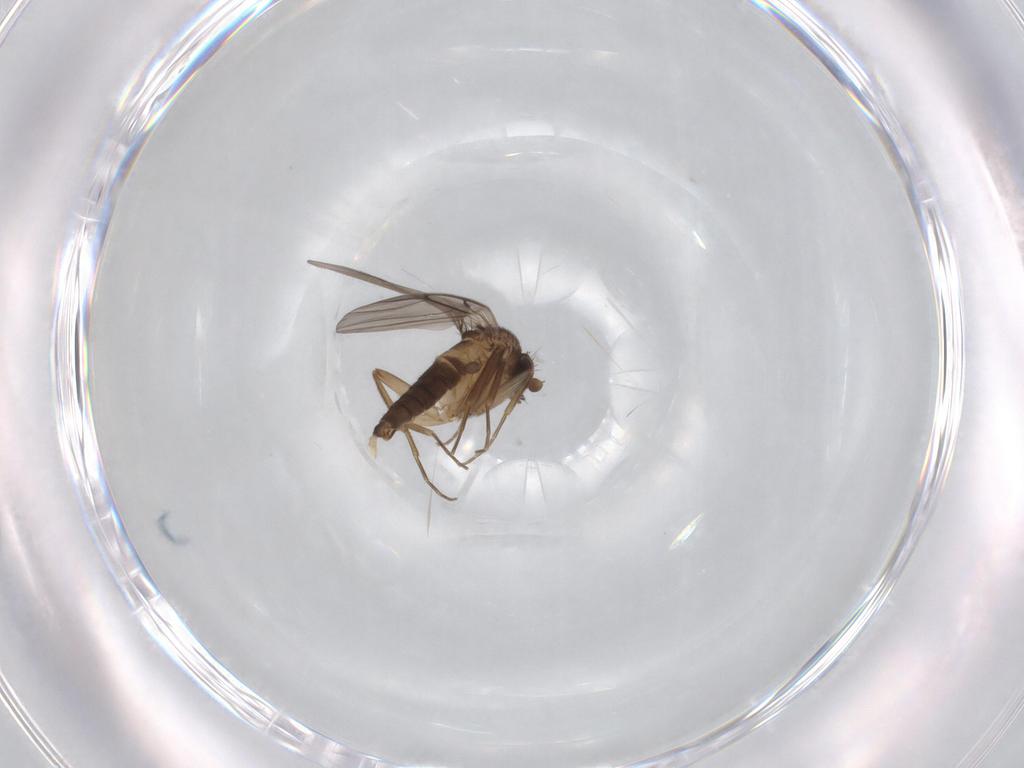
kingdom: Animalia
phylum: Arthropoda
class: Insecta
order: Diptera
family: Phoridae
